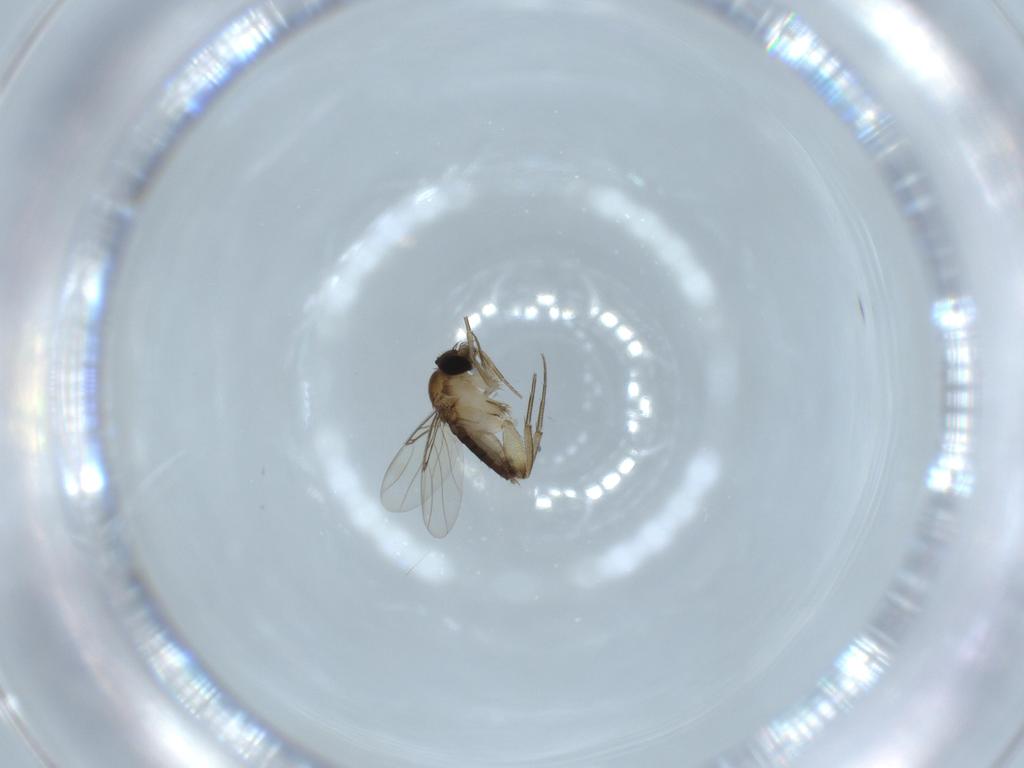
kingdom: Animalia
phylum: Arthropoda
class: Insecta
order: Diptera
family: Phoridae
